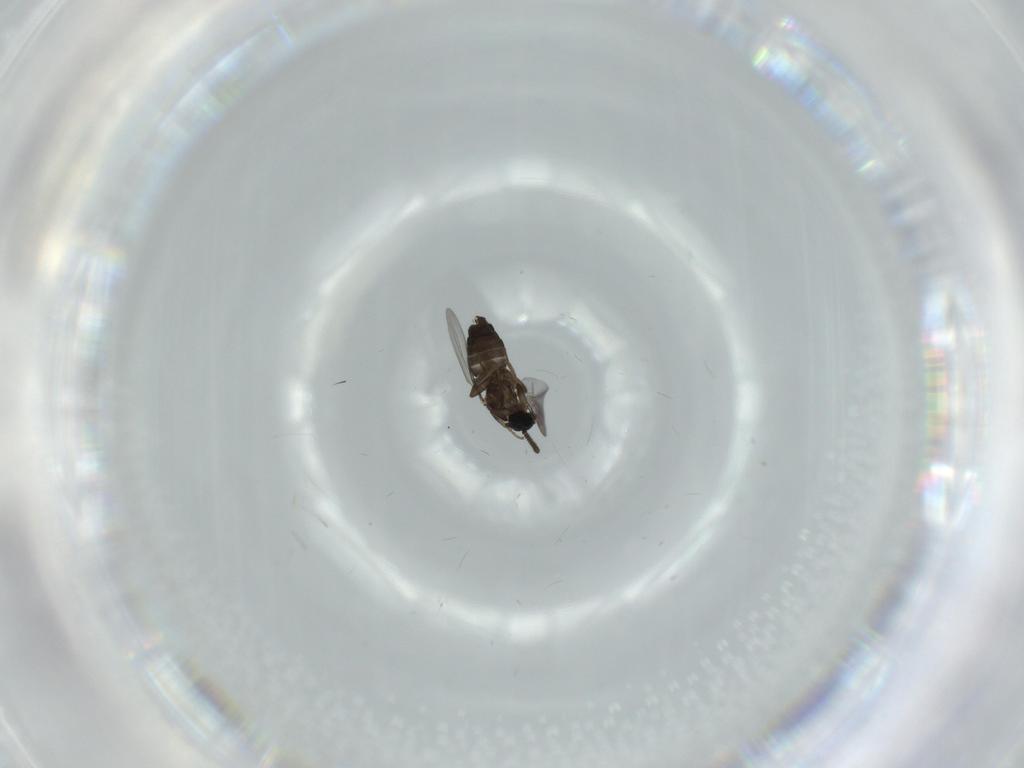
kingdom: Animalia
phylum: Arthropoda
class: Insecta
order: Diptera
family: Scatopsidae
